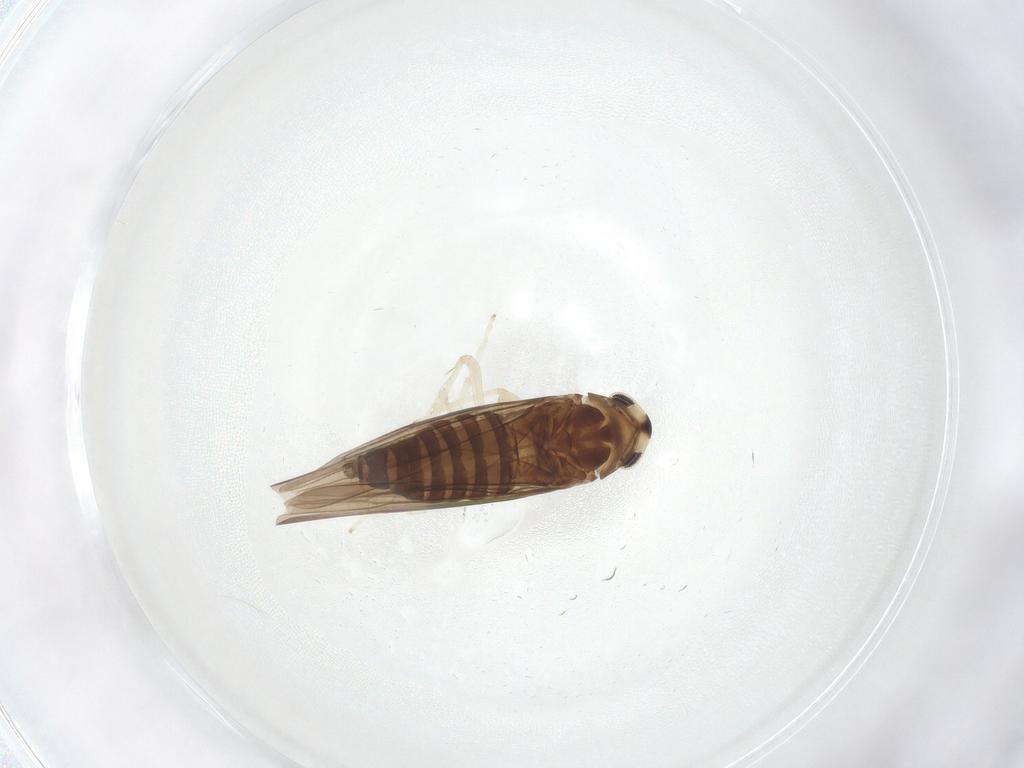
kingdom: Animalia
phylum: Arthropoda
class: Insecta
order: Hemiptera
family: Cicadellidae
